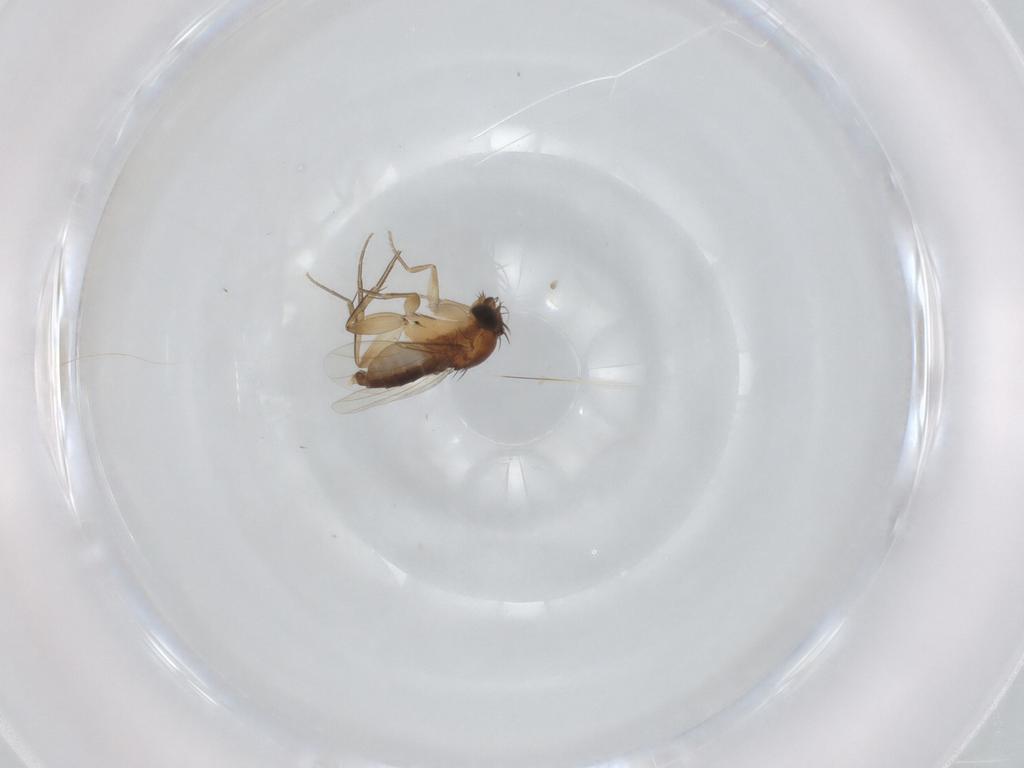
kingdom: Animalia
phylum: Arthropoda
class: Insecta
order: Diptera
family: Phoridae
